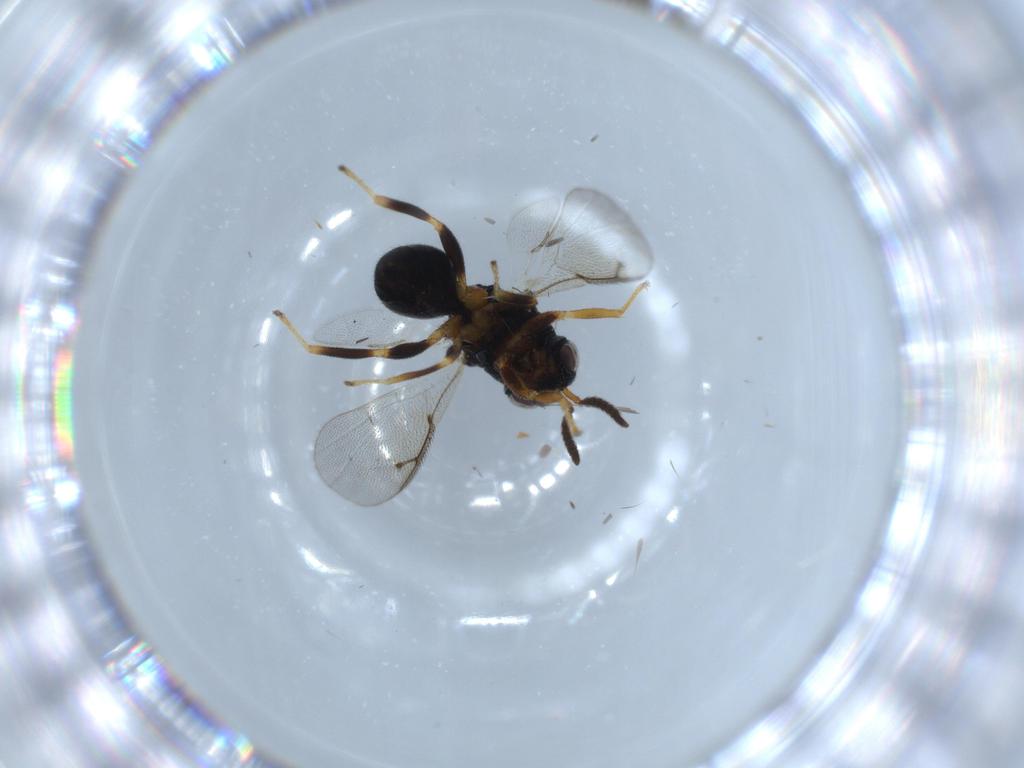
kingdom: Animalia
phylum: Arthropoda
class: Insecta
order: Hymenoptera
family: Eurytomidae
